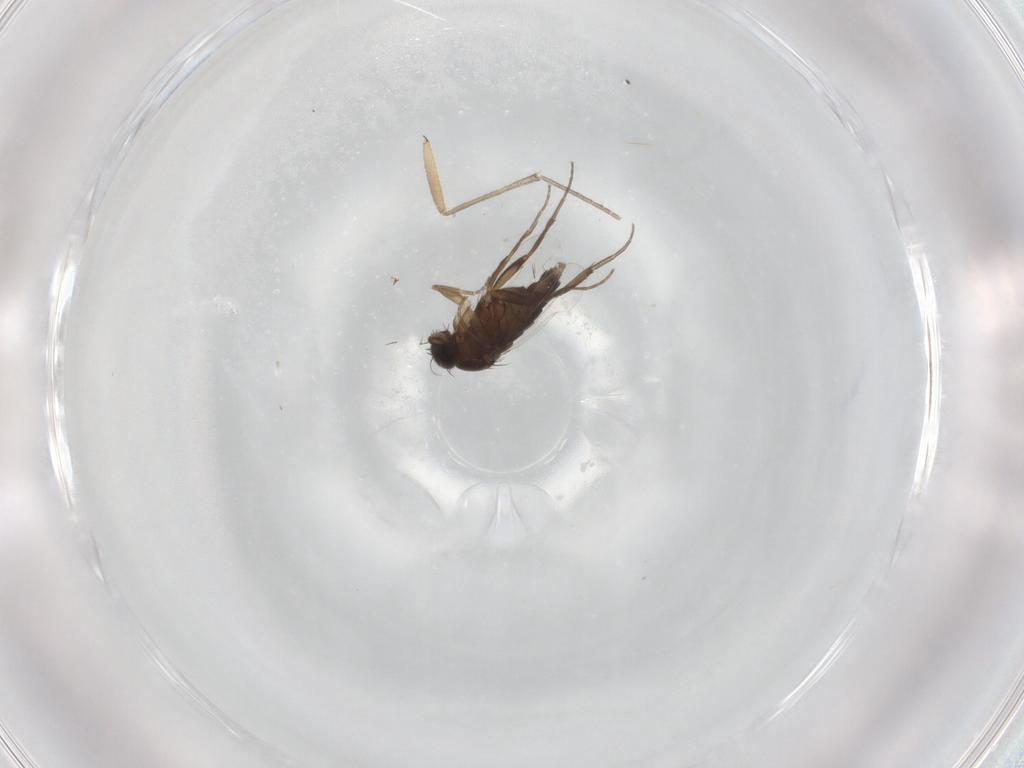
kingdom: Animalia
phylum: Arthropoda
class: Insecta
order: Diptera
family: Phoridae
